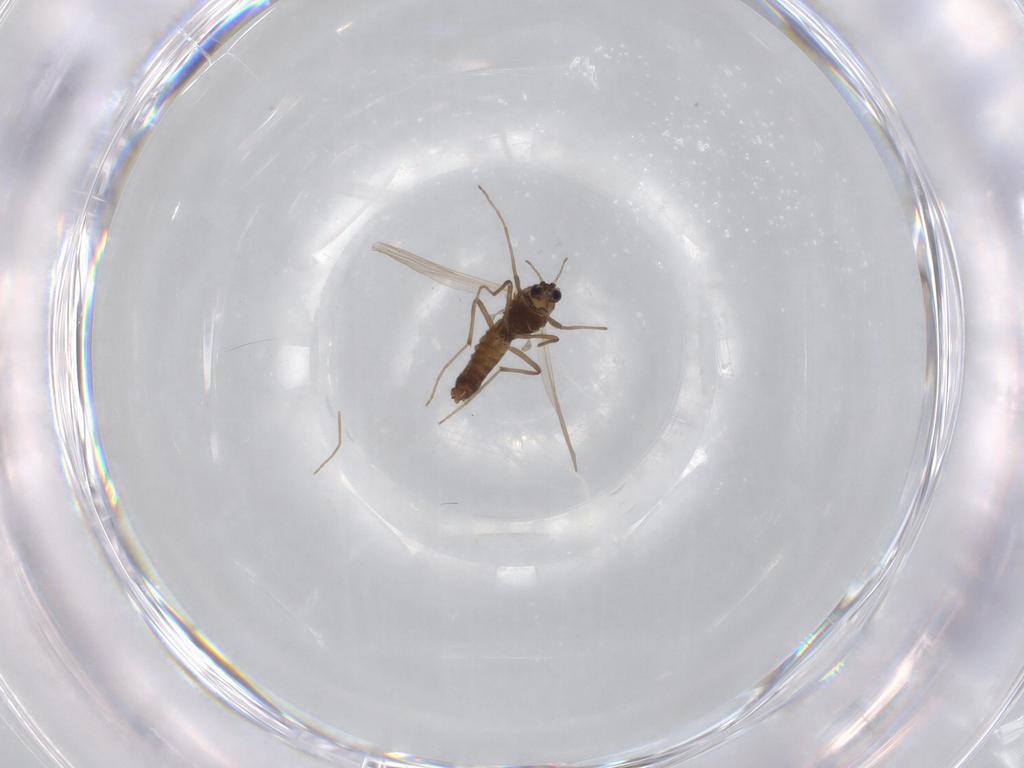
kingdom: Animalia
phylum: Arthropoda
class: Insecta
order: Diptera
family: Chironomidae
